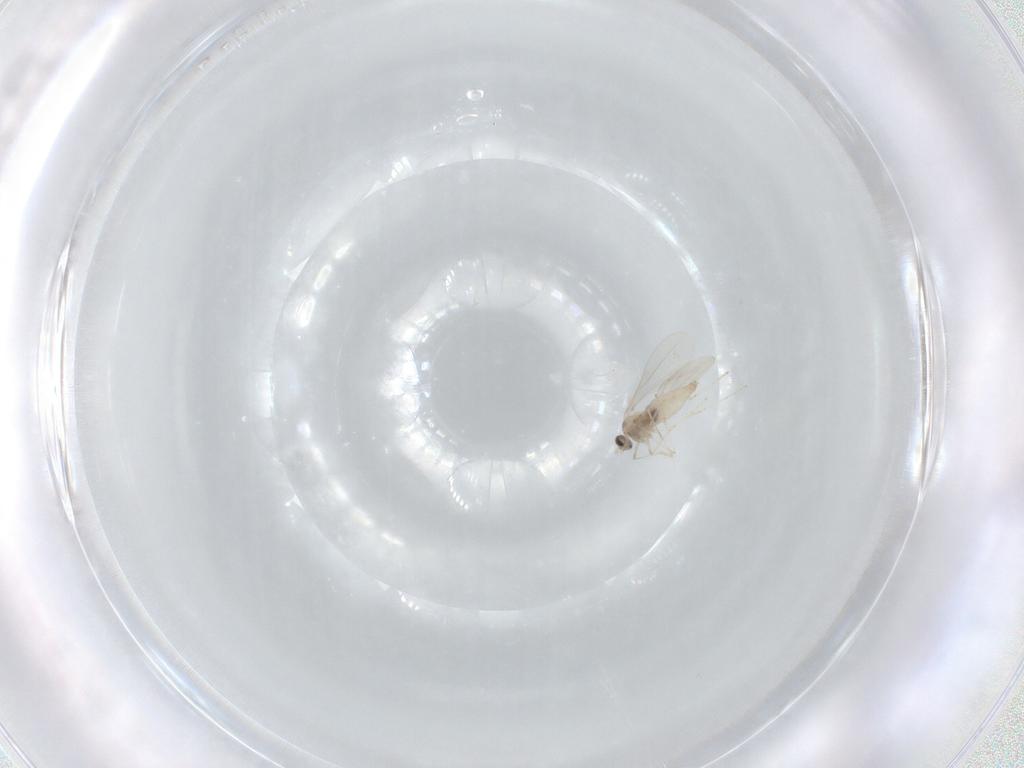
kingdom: Animalia
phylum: Arthropoda
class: Insecta
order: Diptera
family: Cecidomyiidae
